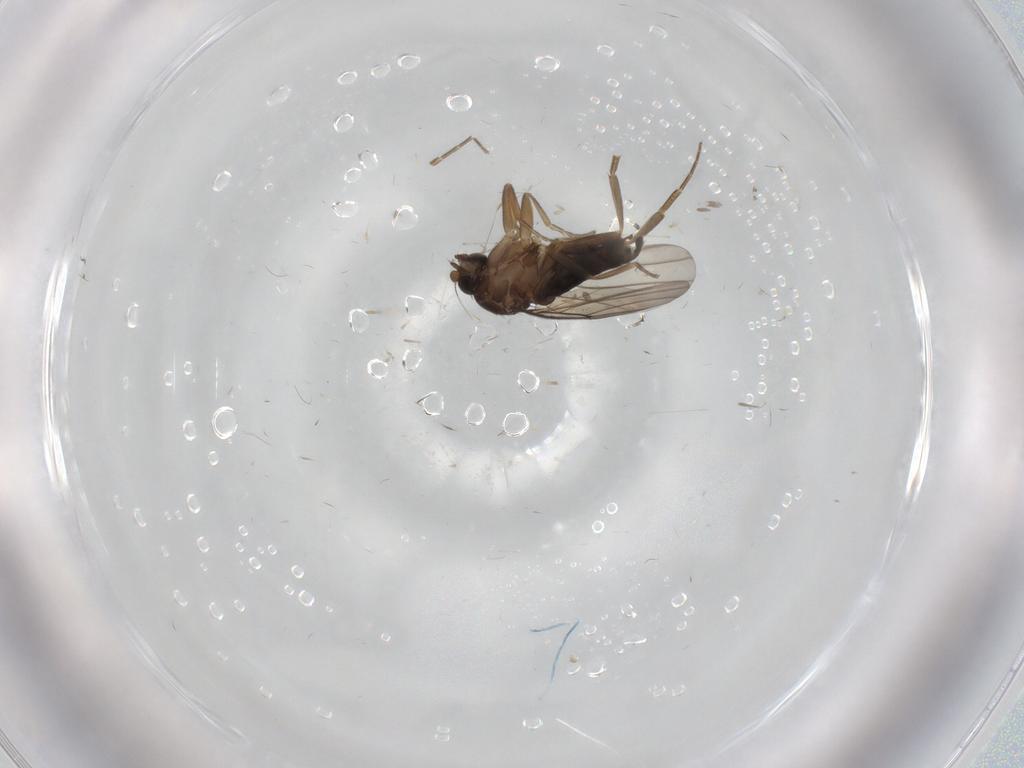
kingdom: Animalia
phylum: Arthropoda
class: Insecta
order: Diptera
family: Phoridae
